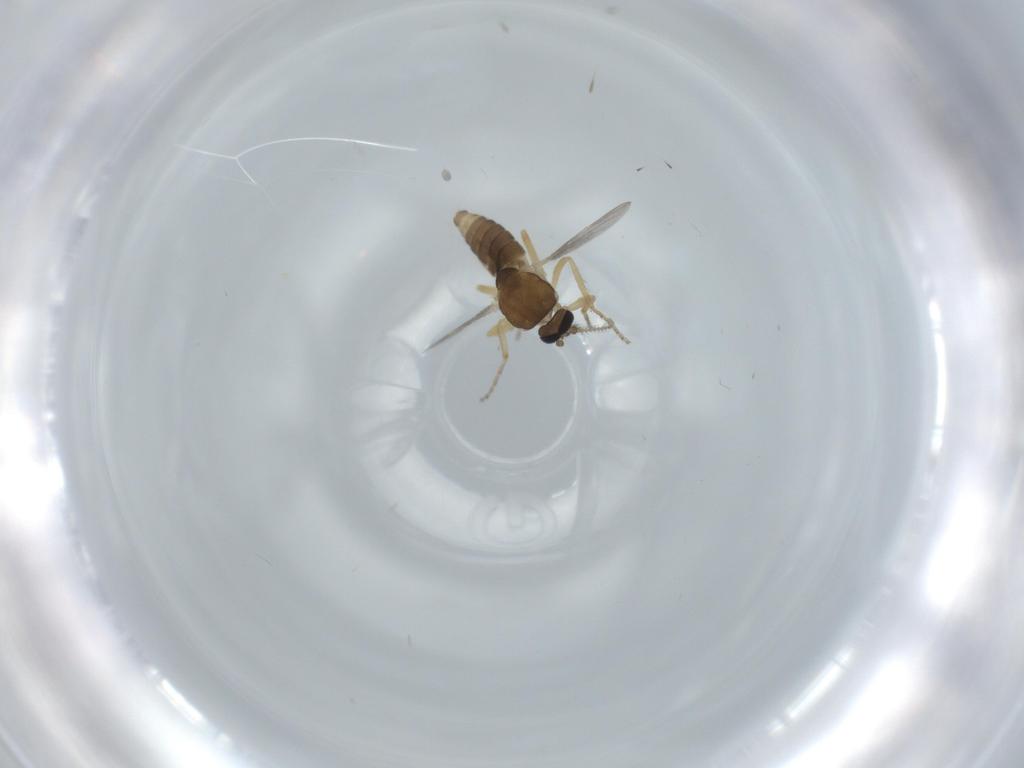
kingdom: Animalia
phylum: Arthropoda
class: Insecta
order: Diptera
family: Ceratopogonidae
